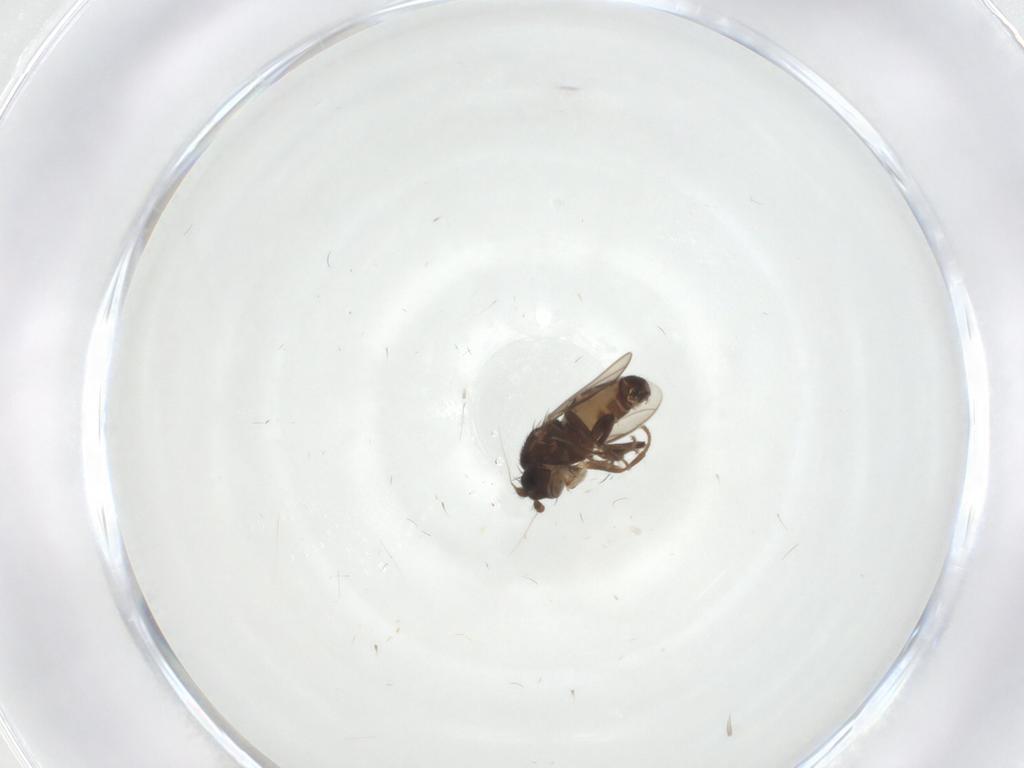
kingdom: Animalia
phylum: Arthropoda
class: Insecta
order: Diptera
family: Sphaeroceridae
